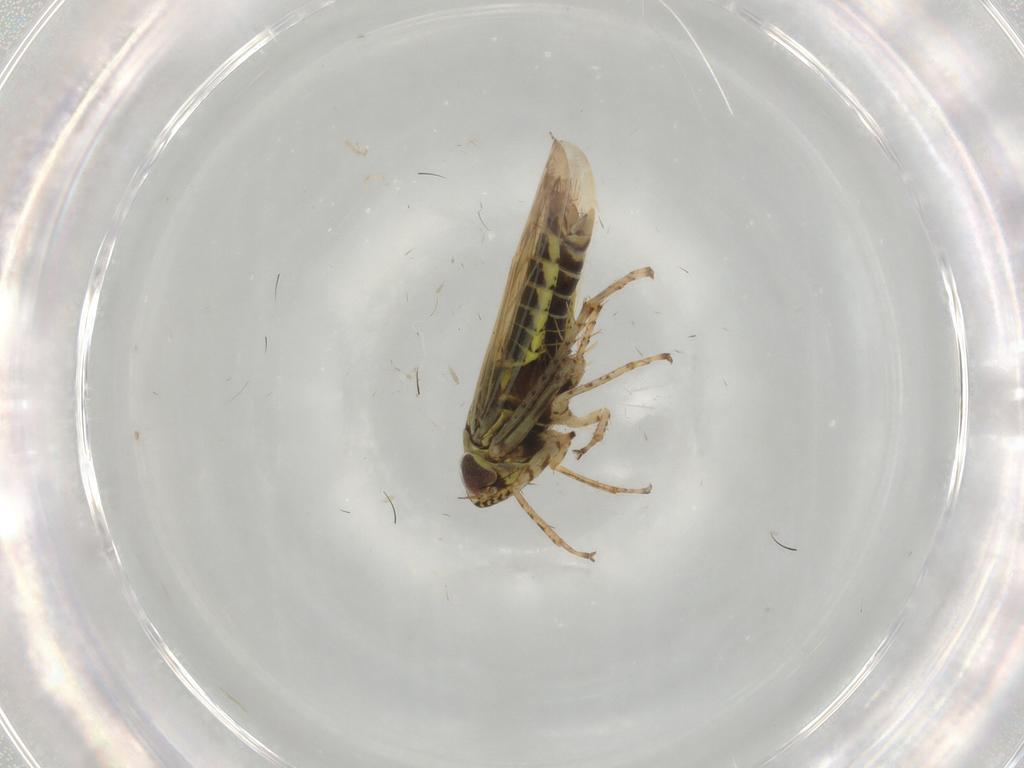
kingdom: Animalia
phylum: Arthropoda
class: Insecta
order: Hemiptera
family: Cicadellidae
